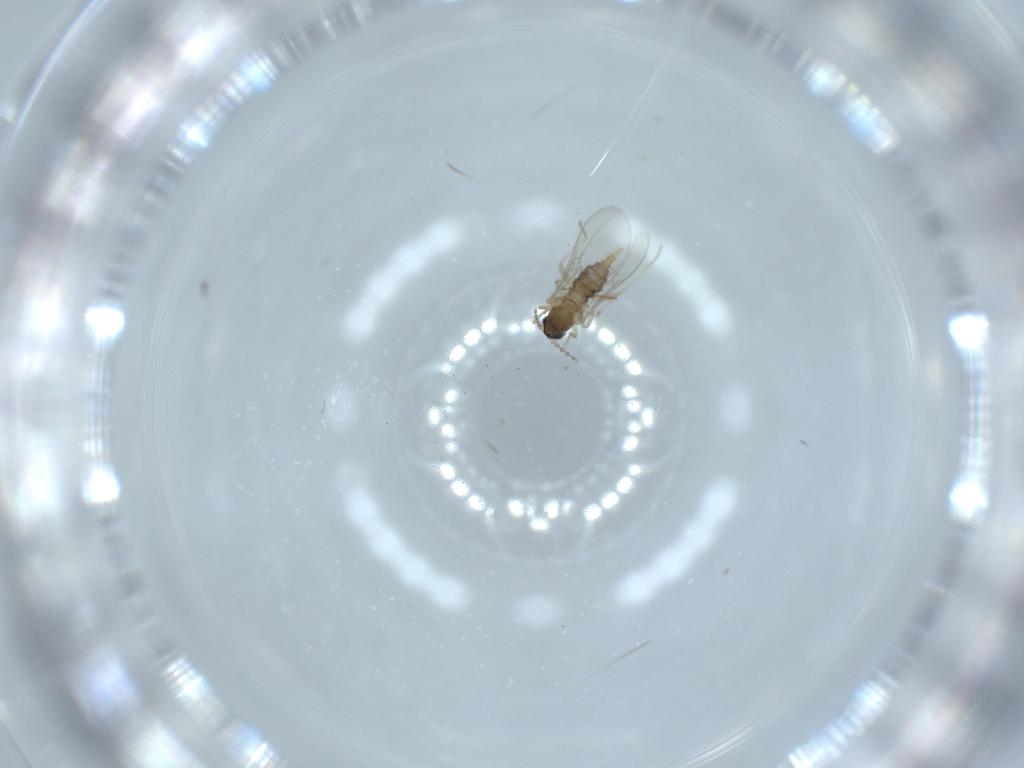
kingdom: Animalia
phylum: Arthropoda
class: Insecta
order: Diptera
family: Cecidomyiidae
